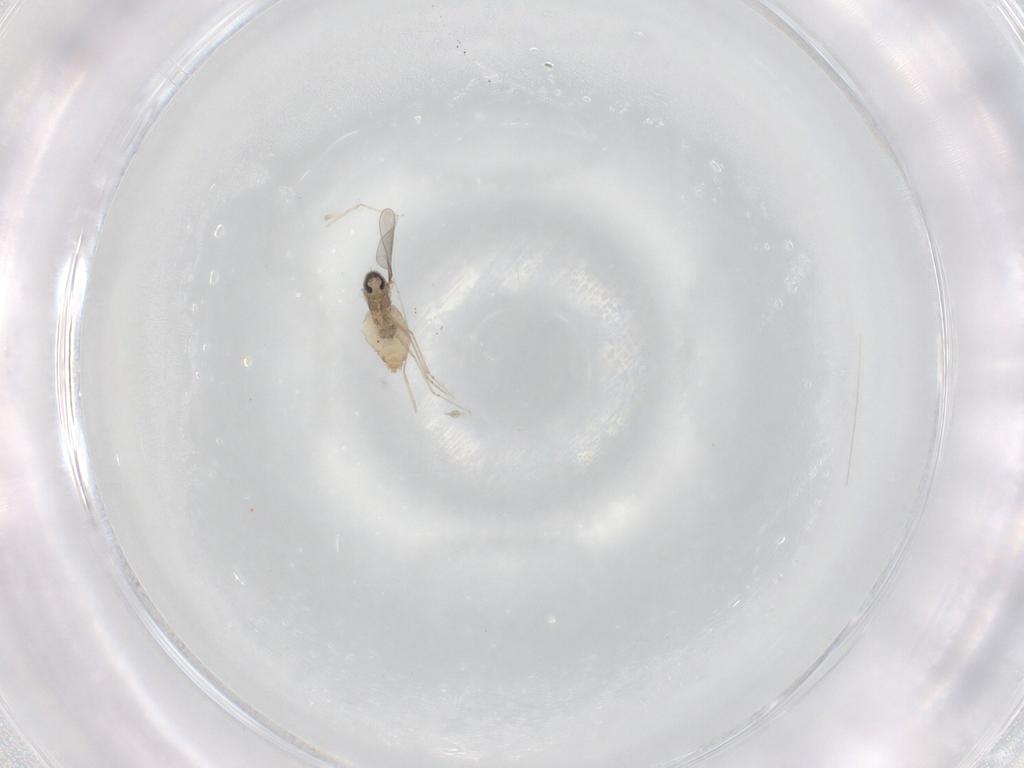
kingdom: Animalia
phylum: Arthropoda
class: Insecta
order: Diptera
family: Cecidomyiidae
